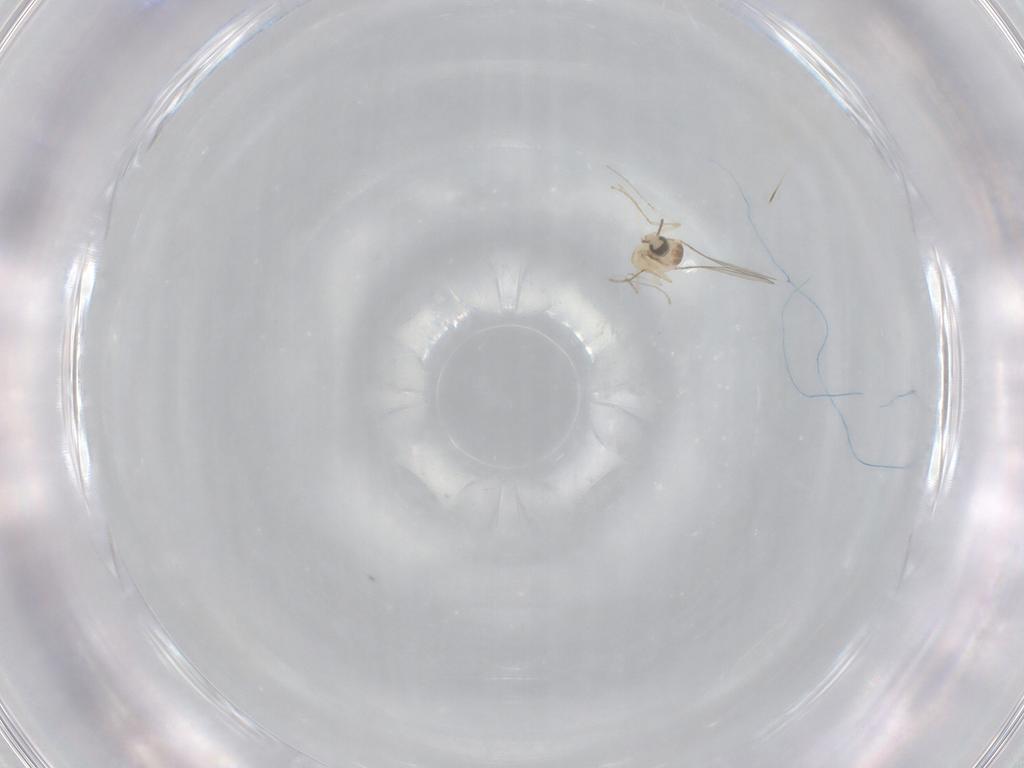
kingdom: Animalia
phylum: Arthropoda
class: Insecta
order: Diptera
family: Cecidomyiidae
